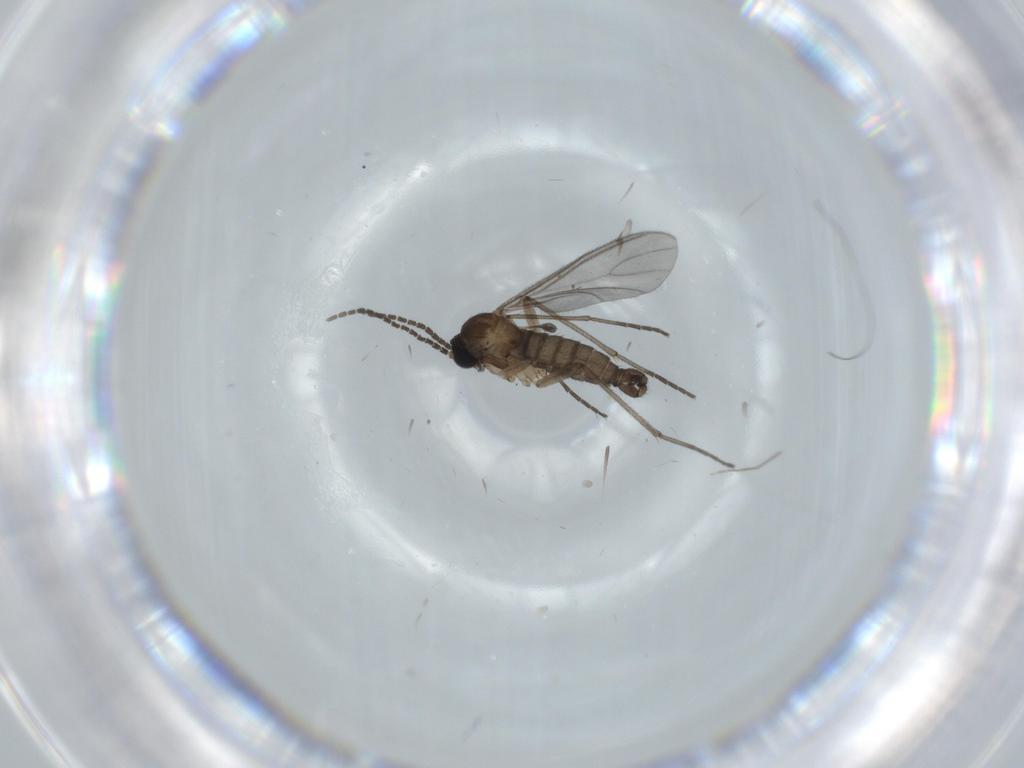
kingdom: Animalia
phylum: Arthropoda
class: Insecta
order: Diptera
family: Sciaridae
